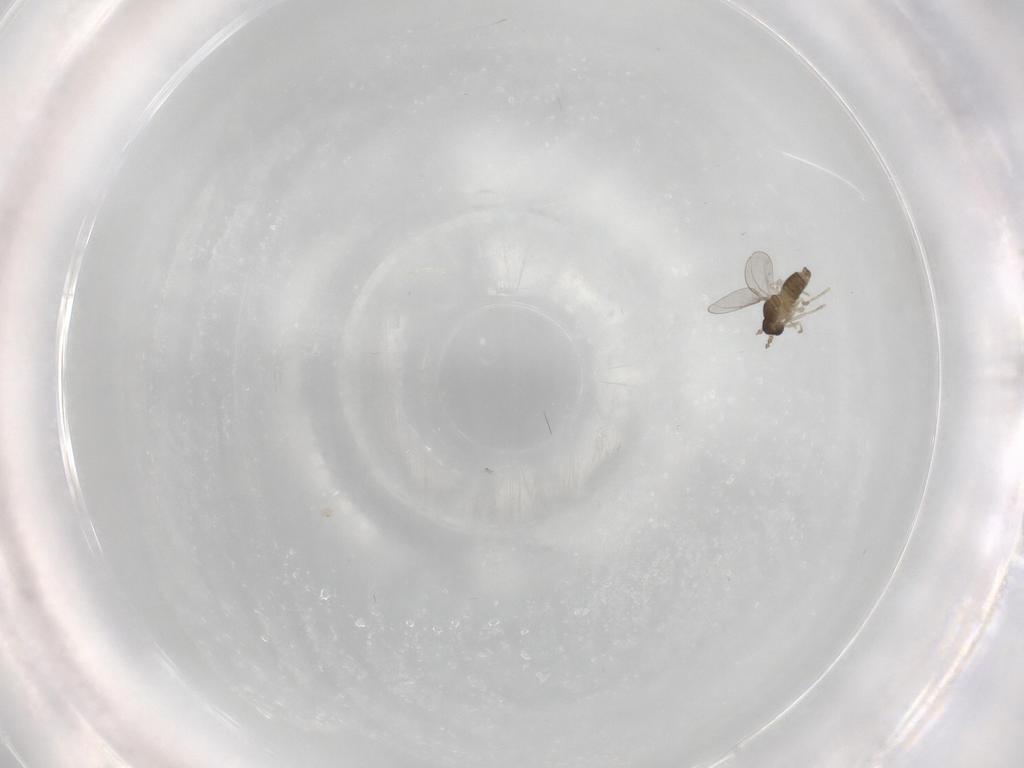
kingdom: Animalia
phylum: Arthropoda
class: Insecta
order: Diptera
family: Cecidomyiidae
